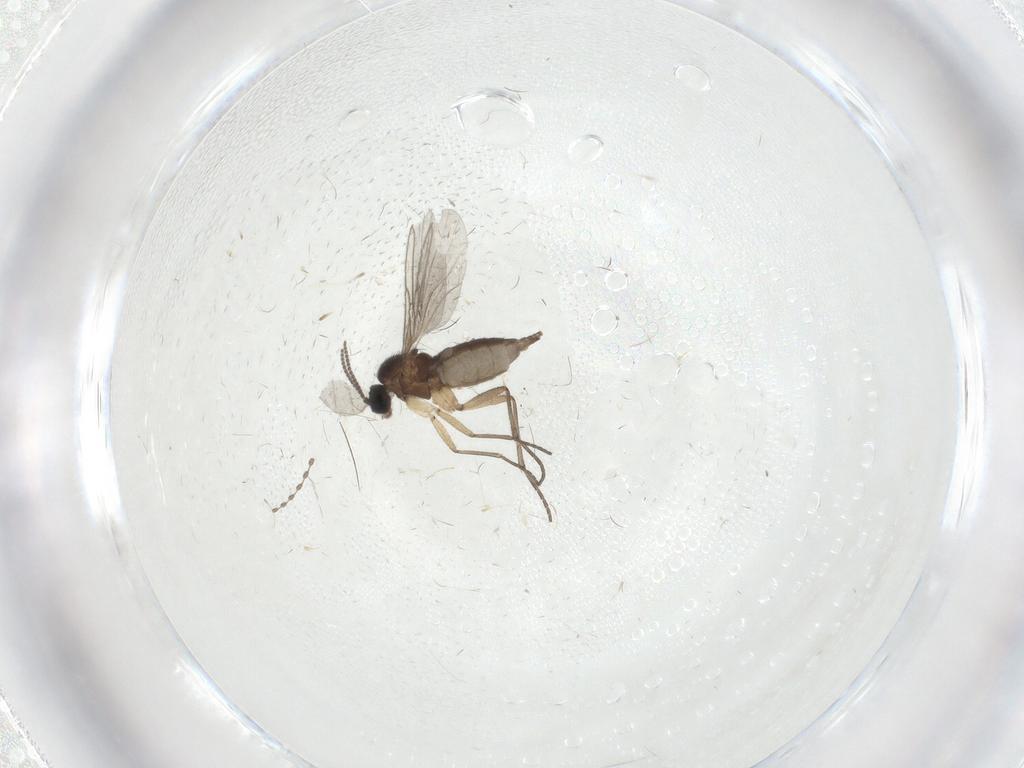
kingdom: Animalia
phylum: Arthropoda
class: Insecta
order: Diptera
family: Sciaridae
